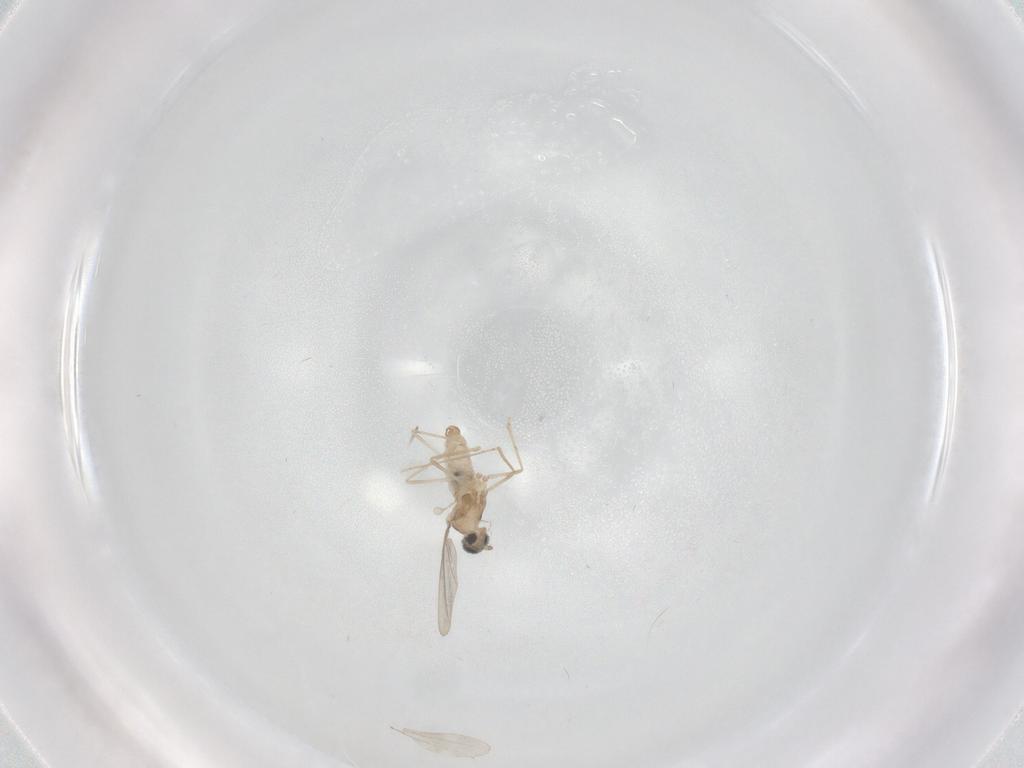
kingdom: Animalia
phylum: Arthropoda
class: Insecta
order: Diptera
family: Cecidomyiidae
